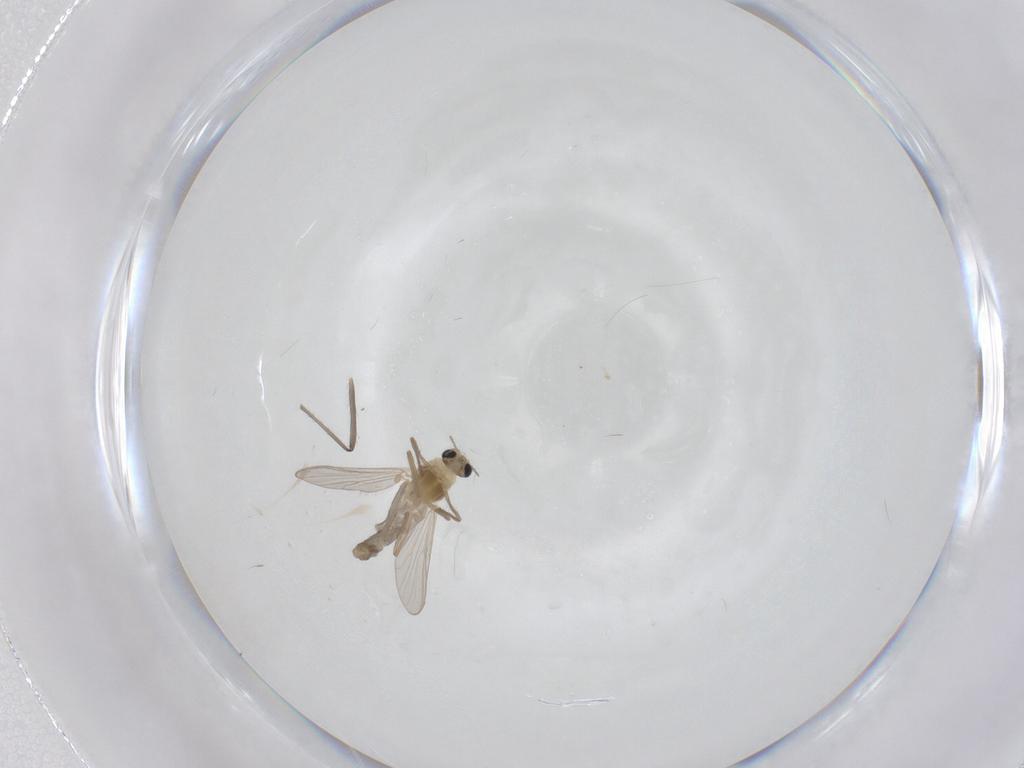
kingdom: Animalia
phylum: Arthropoda
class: Insecta
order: Diptera
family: Chironomidae
